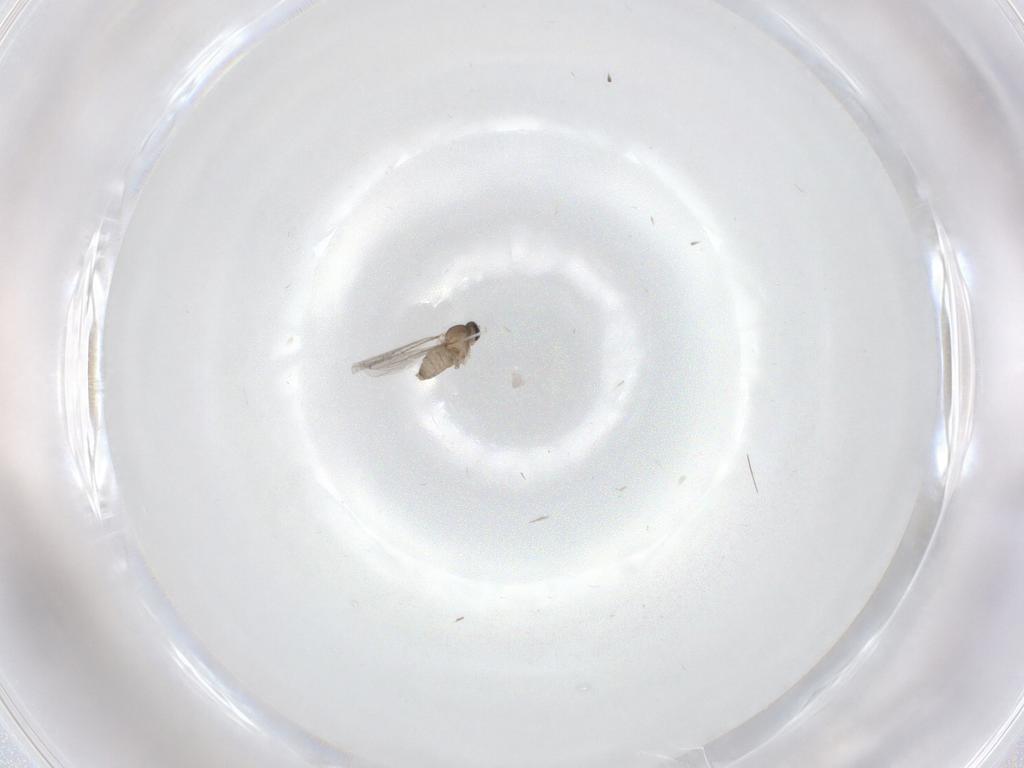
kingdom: Animalia
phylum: Arthropoda
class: Insecta
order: Diptera
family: Cecidomyiidae
